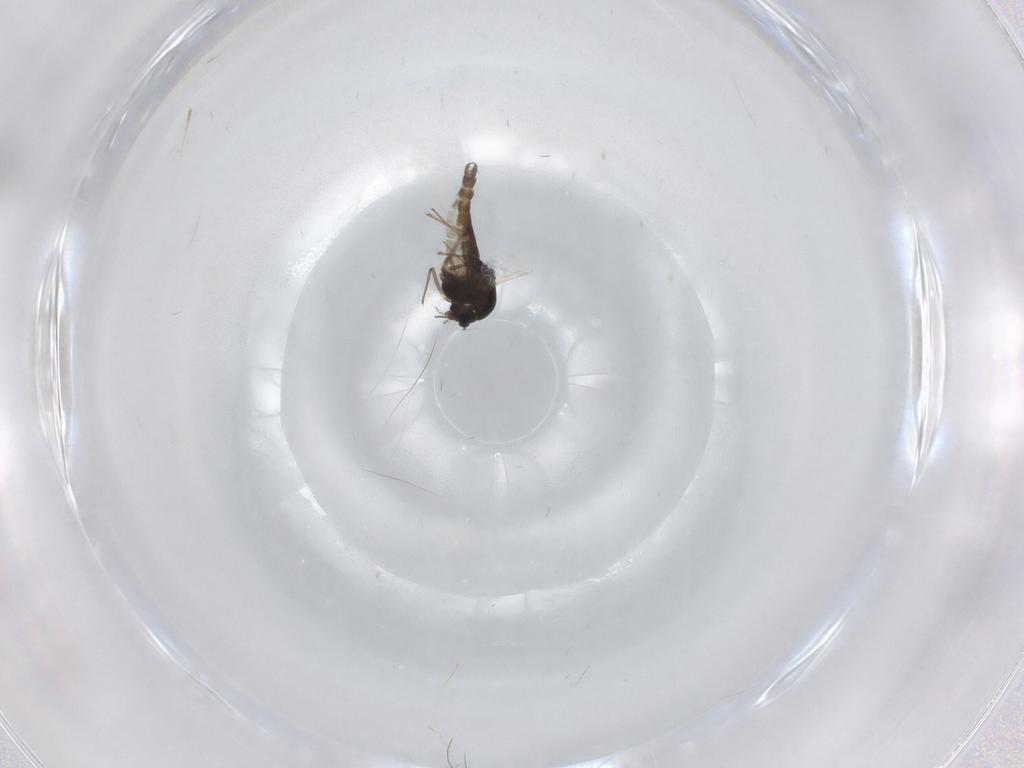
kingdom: Animalia
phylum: Arthropoda
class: Insecta
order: Diptera
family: Chironomidae
